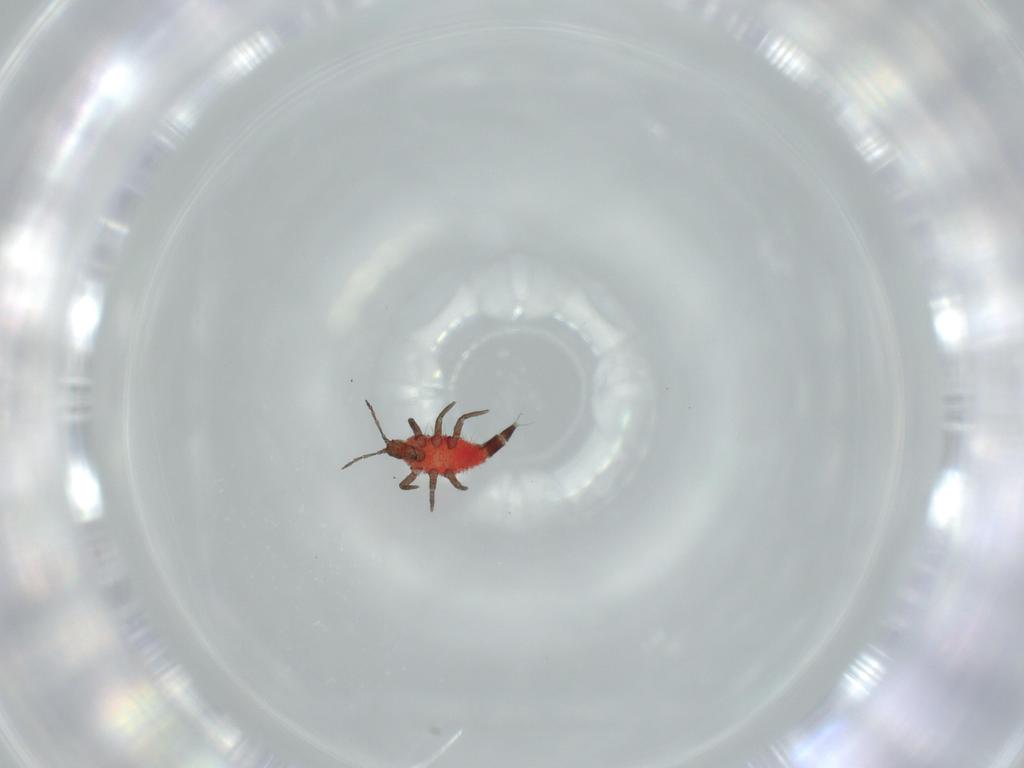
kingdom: Animalia
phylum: Arthropoda
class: Insecta
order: Thysanoptera
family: Phlaeothripidae
